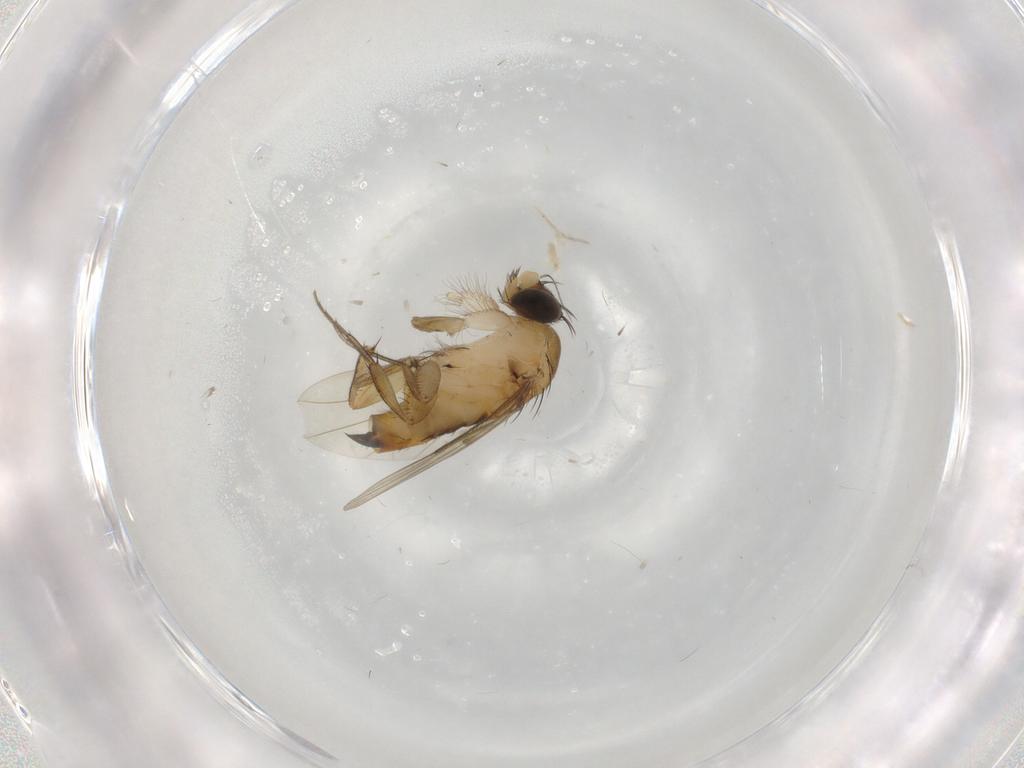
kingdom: Animalia
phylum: Arthropoda
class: Insecta
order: Diptera
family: Phoridae
